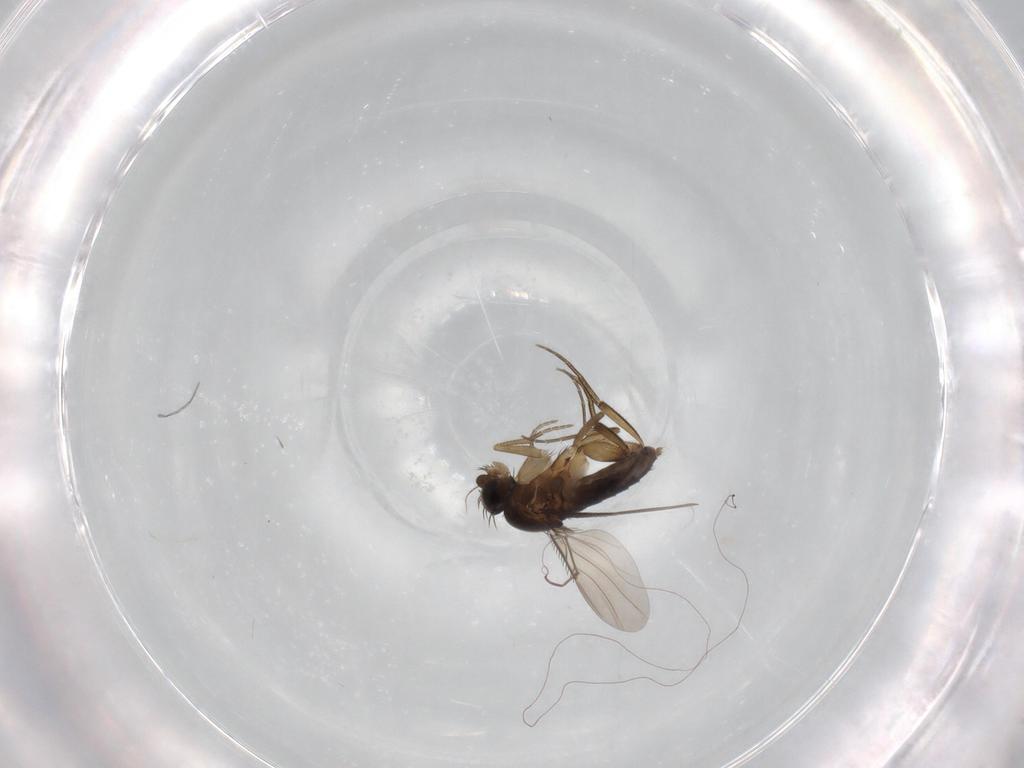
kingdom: Animalia
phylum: Arthropoda
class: Insecta
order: Diptera
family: Phoridae
